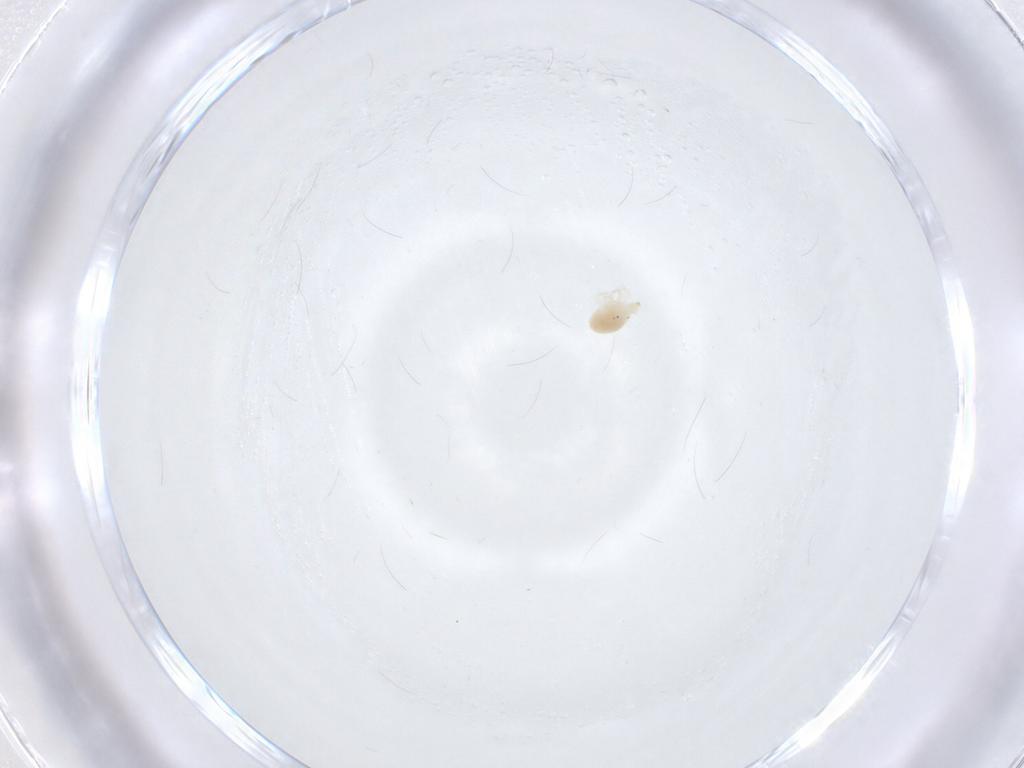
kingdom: Animalia
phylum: Arthropoda
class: Arachnida
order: Trombidiformes
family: Bdellidae
